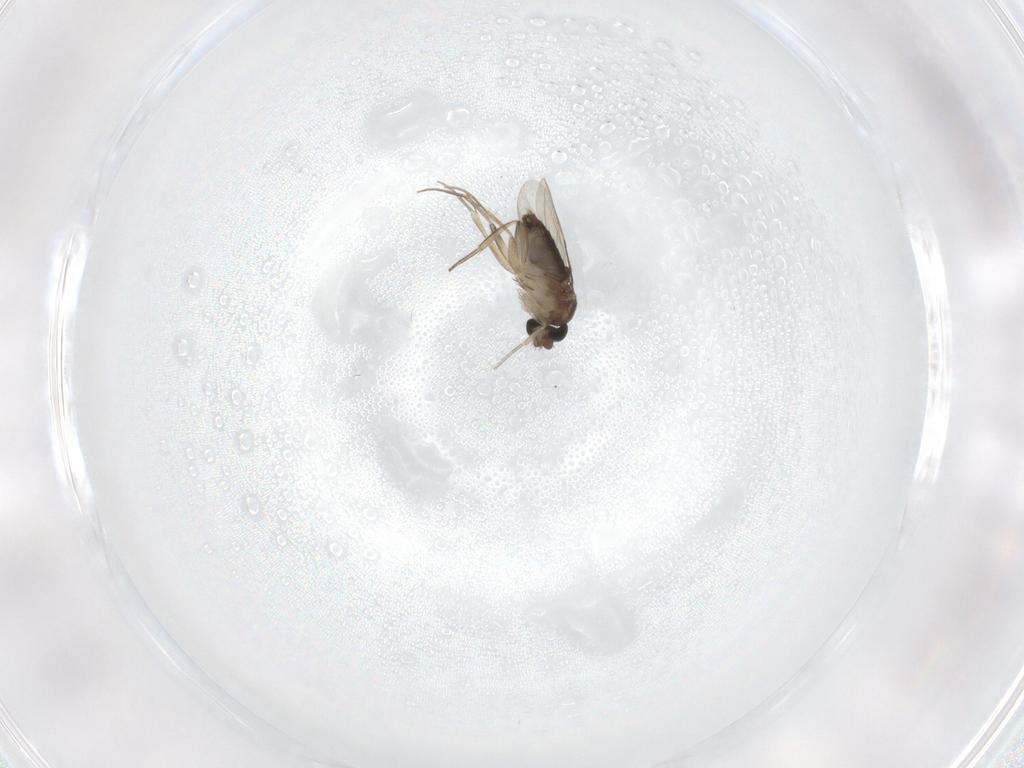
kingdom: Animalia
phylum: Arthropoda
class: Insecta
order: Diptera
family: Phoridae
